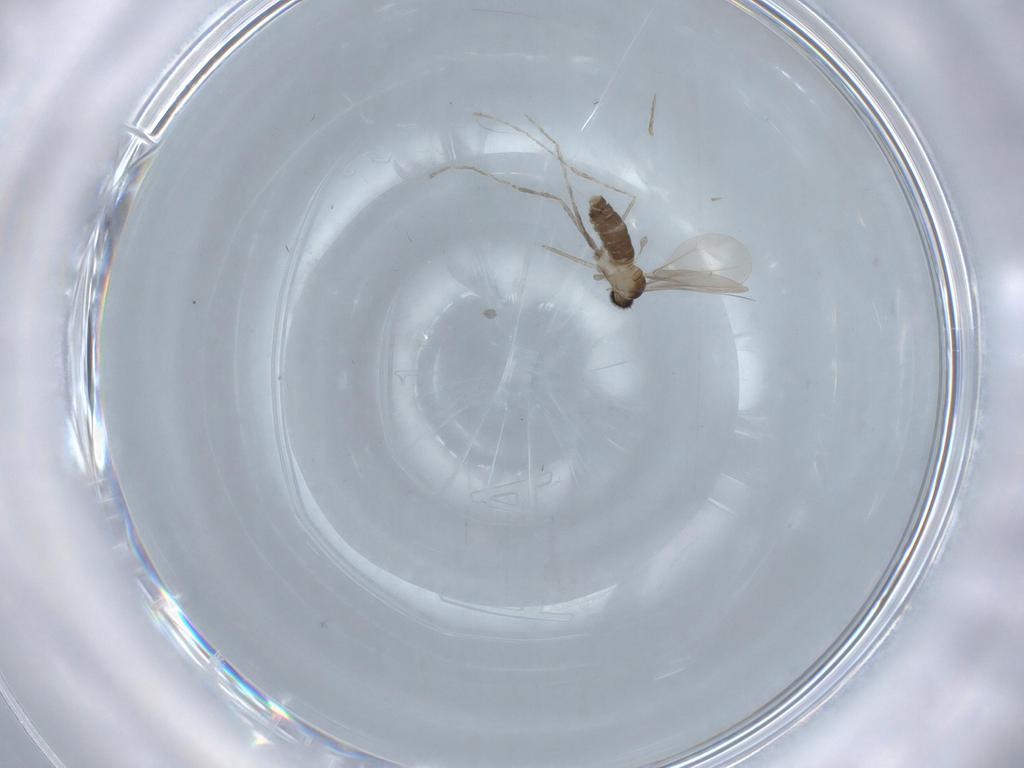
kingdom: Animalia
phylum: Arthropoda
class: Insecta
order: Diptera
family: Cecidomyiidae
